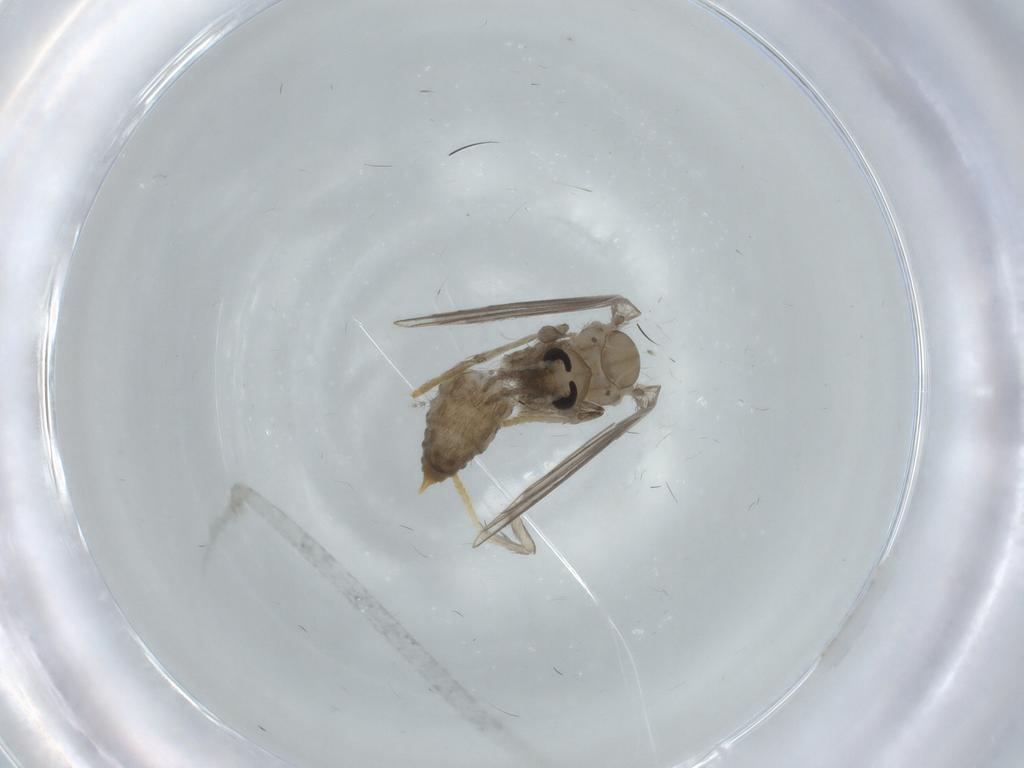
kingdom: Animalia
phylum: Arthropoda
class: Insecta
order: Diptera
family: Psychodidae
